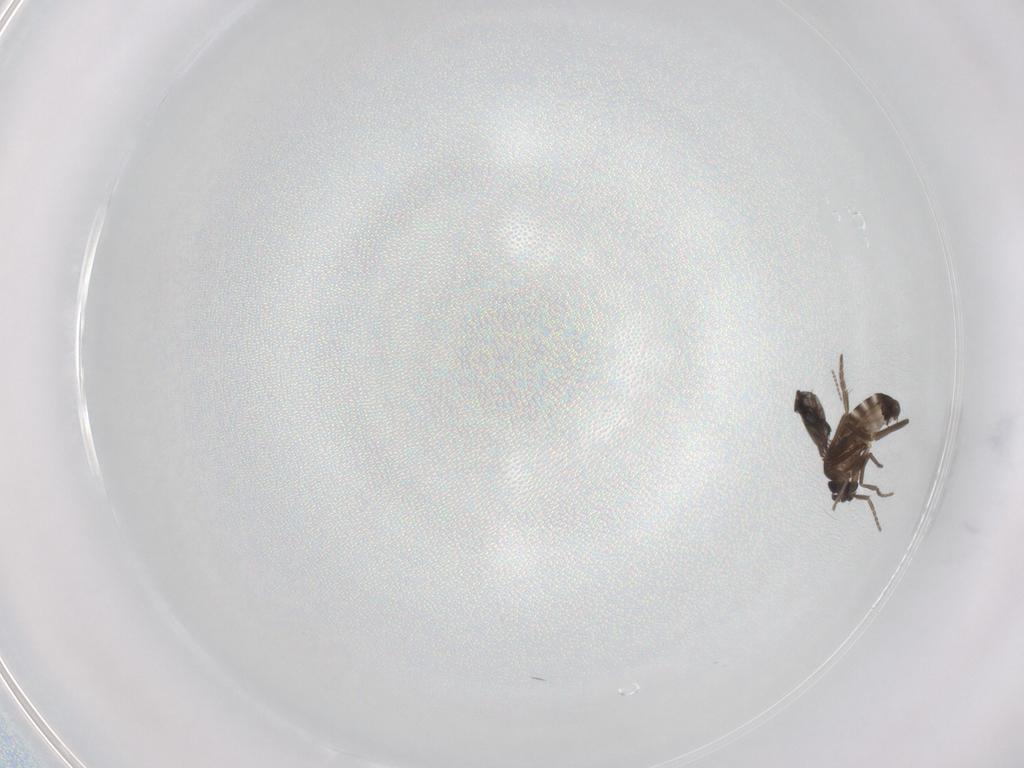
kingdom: Animalia
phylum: Arthropoda
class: Insecta
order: Diptera
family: Phoridae
